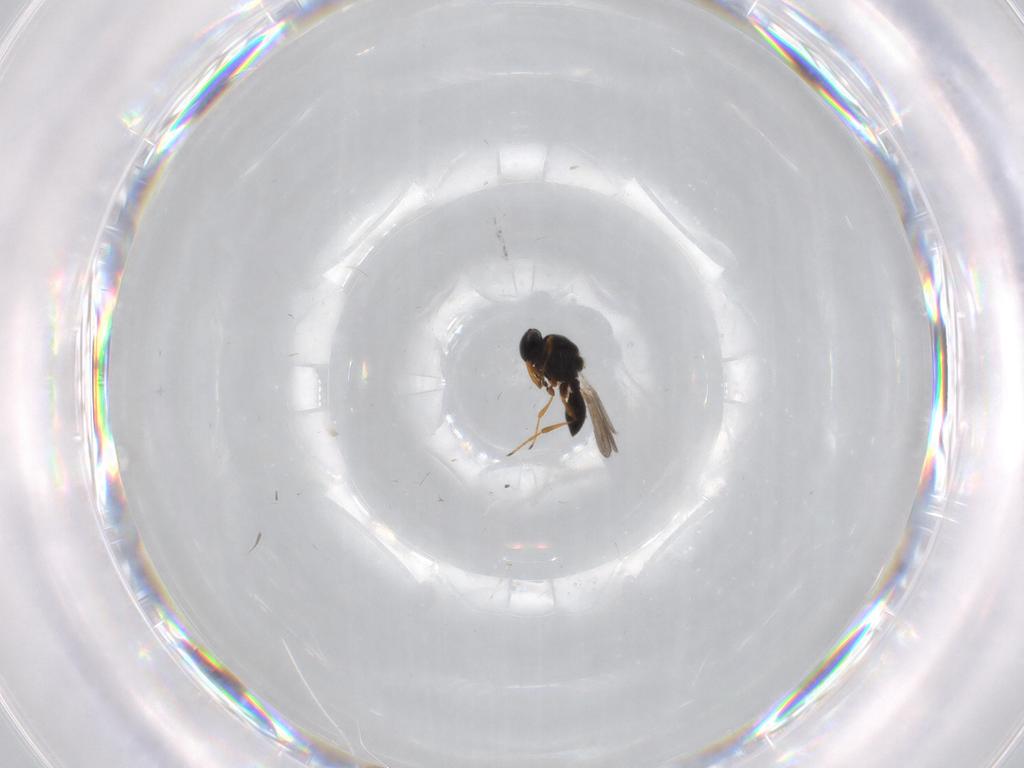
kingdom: Animalia
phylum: Arthropoda
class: Insecta
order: Hymenoptera
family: Platygastridae
